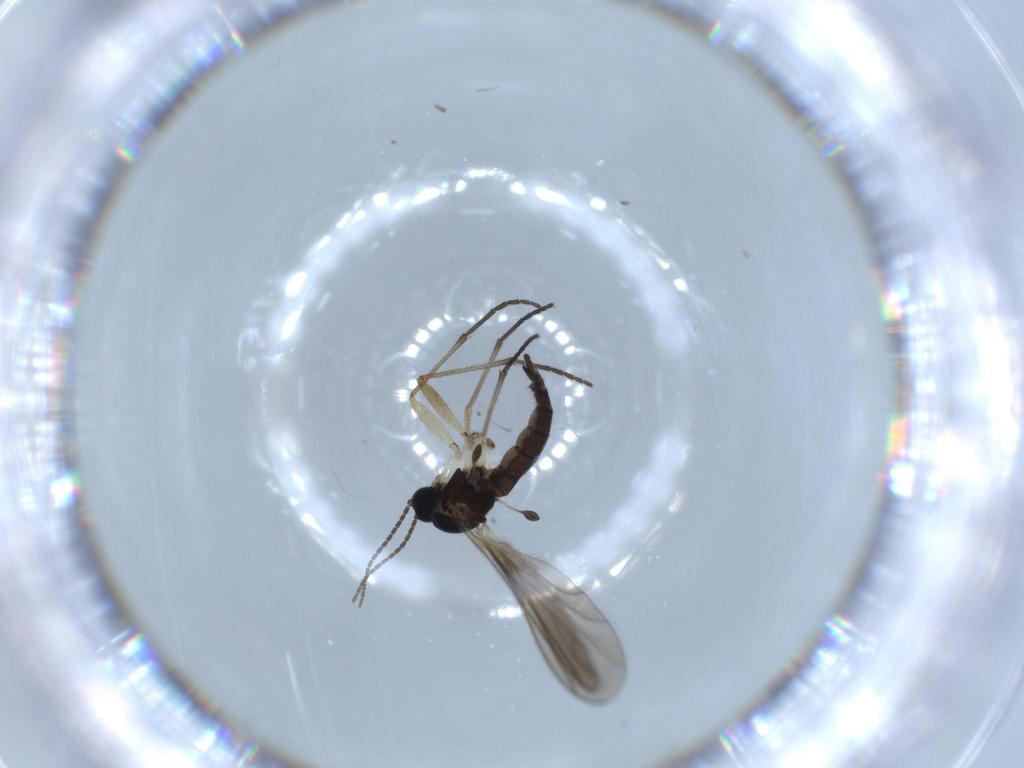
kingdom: Animalia
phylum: Arthropoda
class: Insecta
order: Diptera
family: Sciaridae
